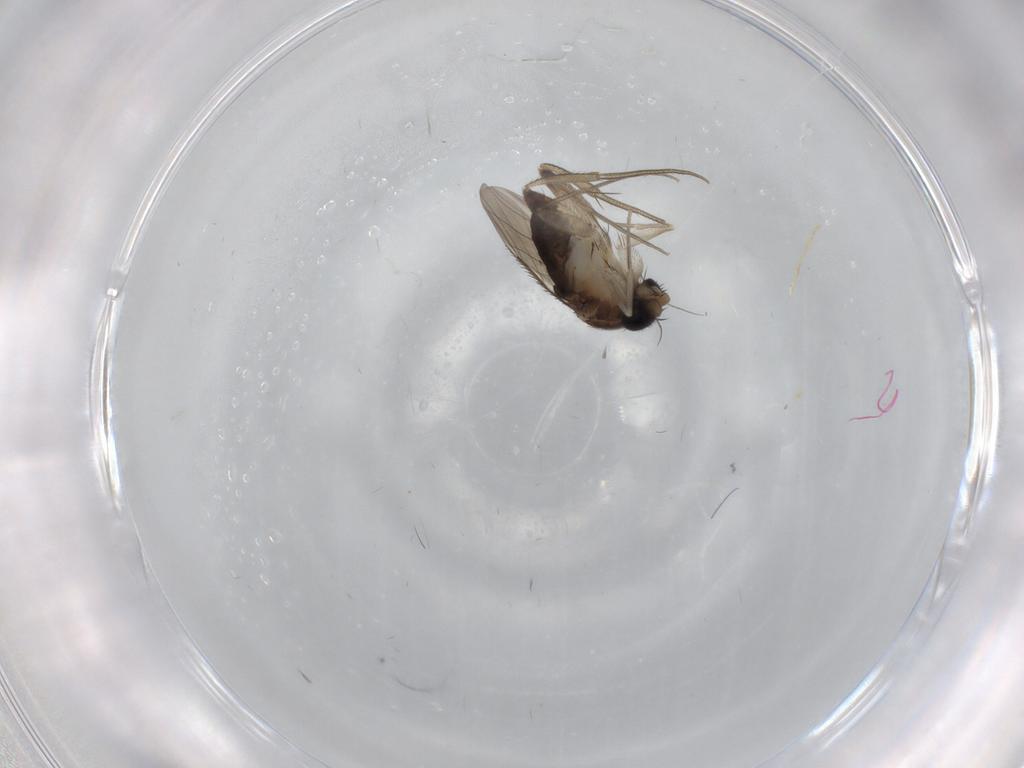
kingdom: Animalia
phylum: Arthropoda
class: Insecta
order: Diptera
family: Phoridae
